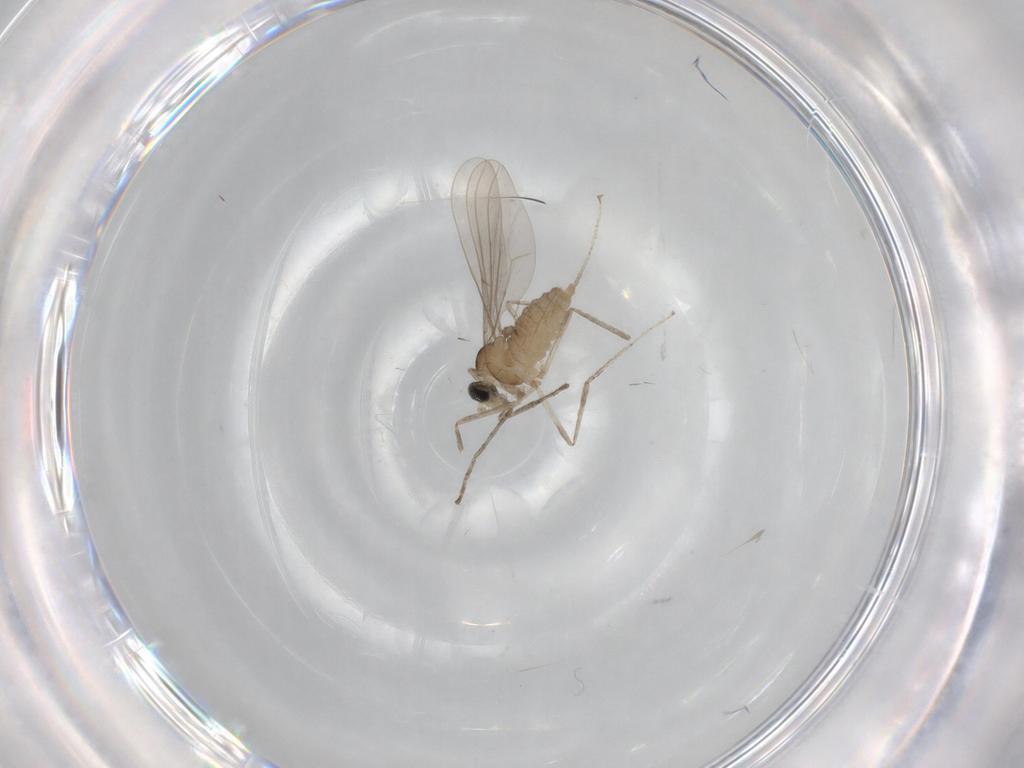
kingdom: Animalia
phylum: Arthropoda
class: Insecta
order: Diptera
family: Cecidomyiidae
